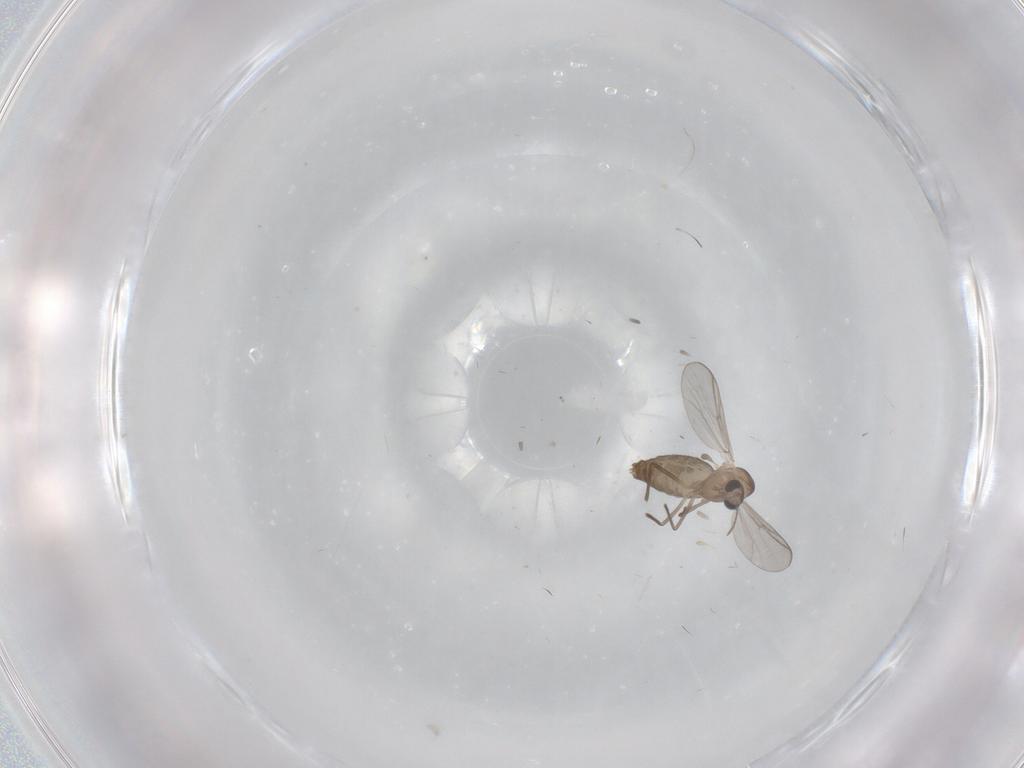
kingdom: Animalia
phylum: Arthropoda
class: Insecta
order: Diptera
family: Chironomidae
